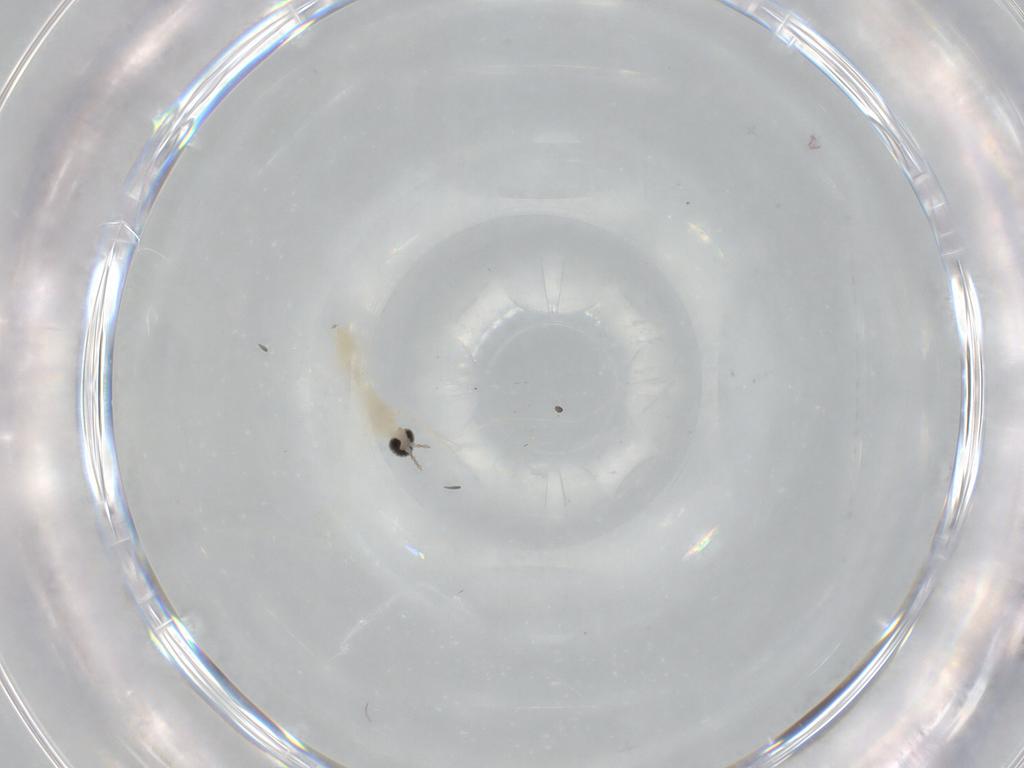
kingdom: Animalia
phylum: Arthropoda
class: Insecta
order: Diptera
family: Cecidomyiidae
